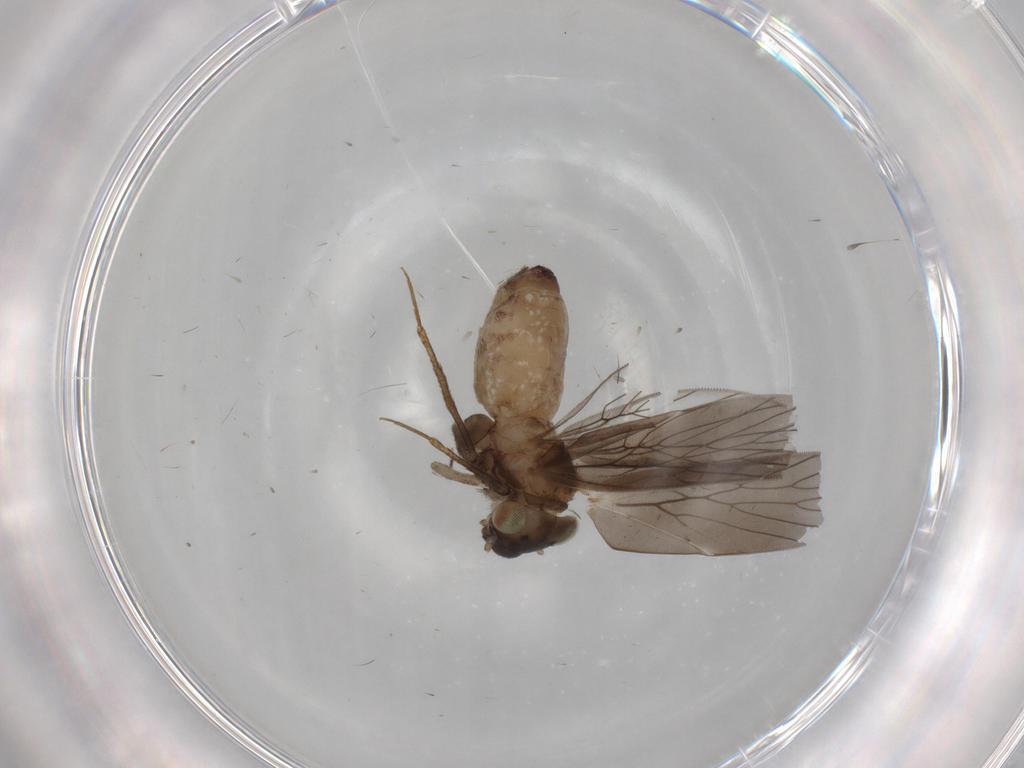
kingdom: Animalia
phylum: Arthropoda
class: Insecta
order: Psocodea
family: Lepidopsocidae
